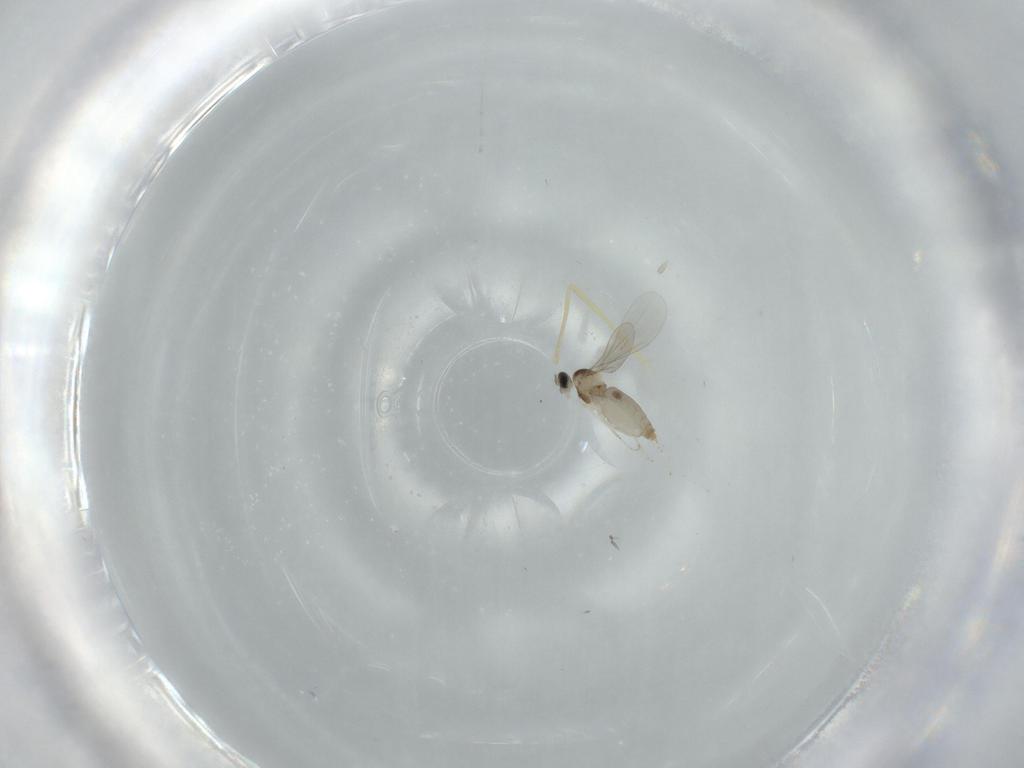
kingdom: Animalia
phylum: Arthropoda
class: Insecta
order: Diptera
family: Chironomidae
